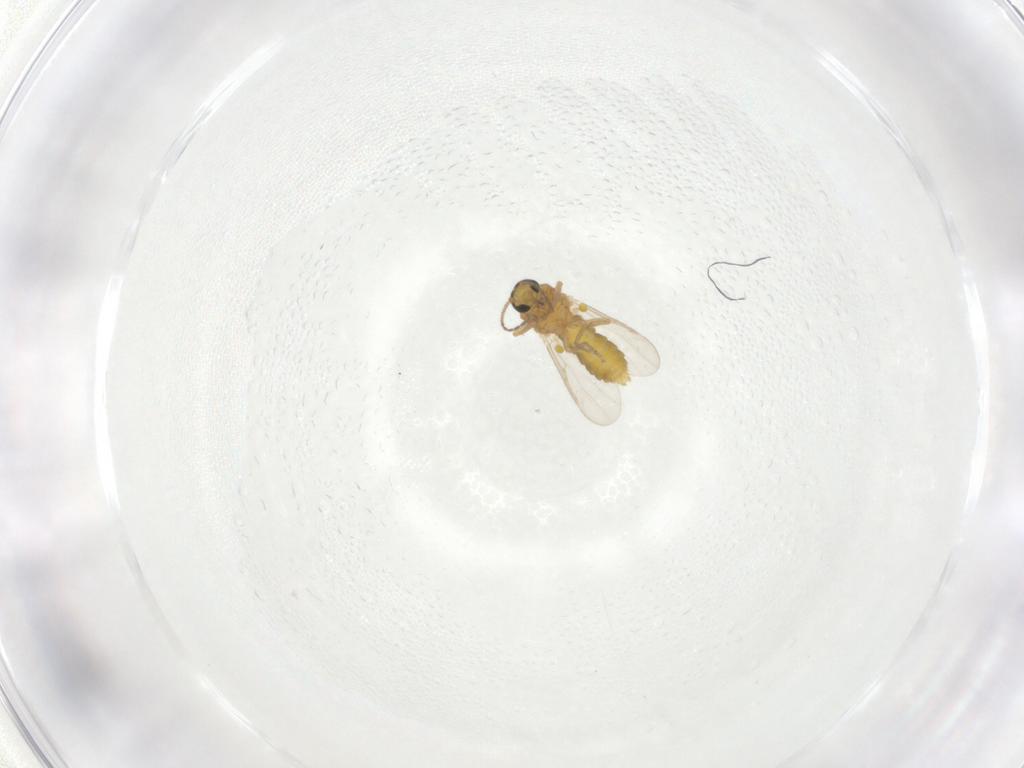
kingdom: Animalia
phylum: Arthropoda
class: Insecta
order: Diptera
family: Ceratopogonidae
